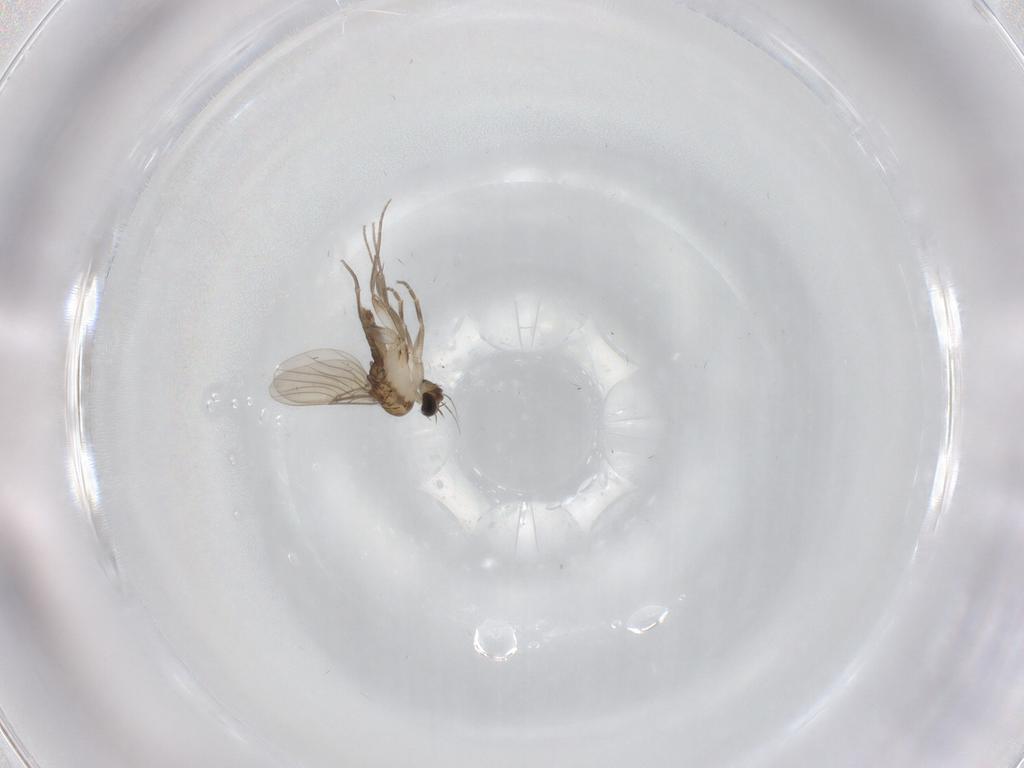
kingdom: Animalia
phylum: Arthropoda
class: Insecta
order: Diptera
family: Phoridae
